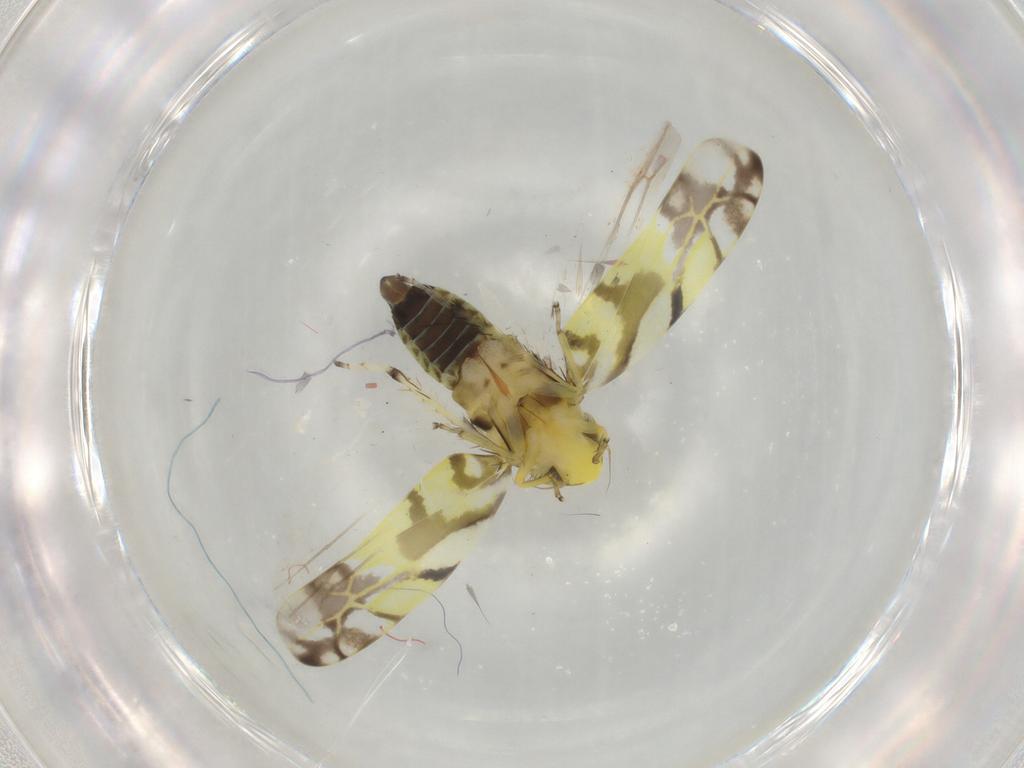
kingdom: Animalia
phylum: Arthropoda
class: Insecta
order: Hemiptera
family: Cicadellidae
